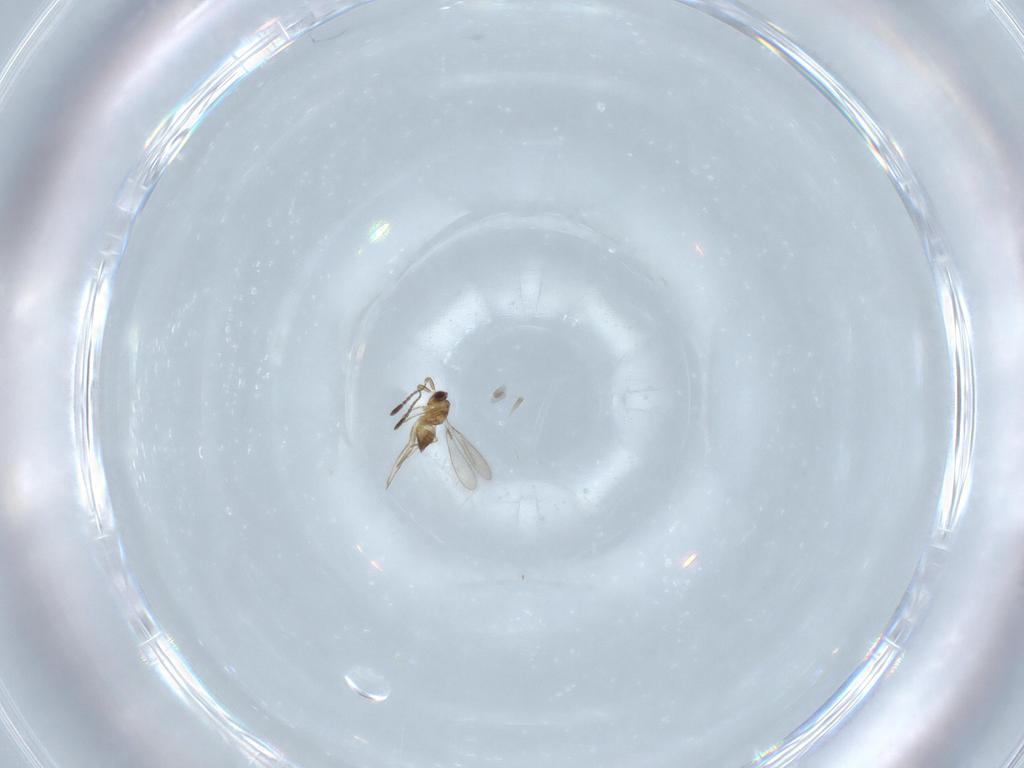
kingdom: Animalia
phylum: Arthropoda
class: Insecta
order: Hymenoptera
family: Mymaridae
